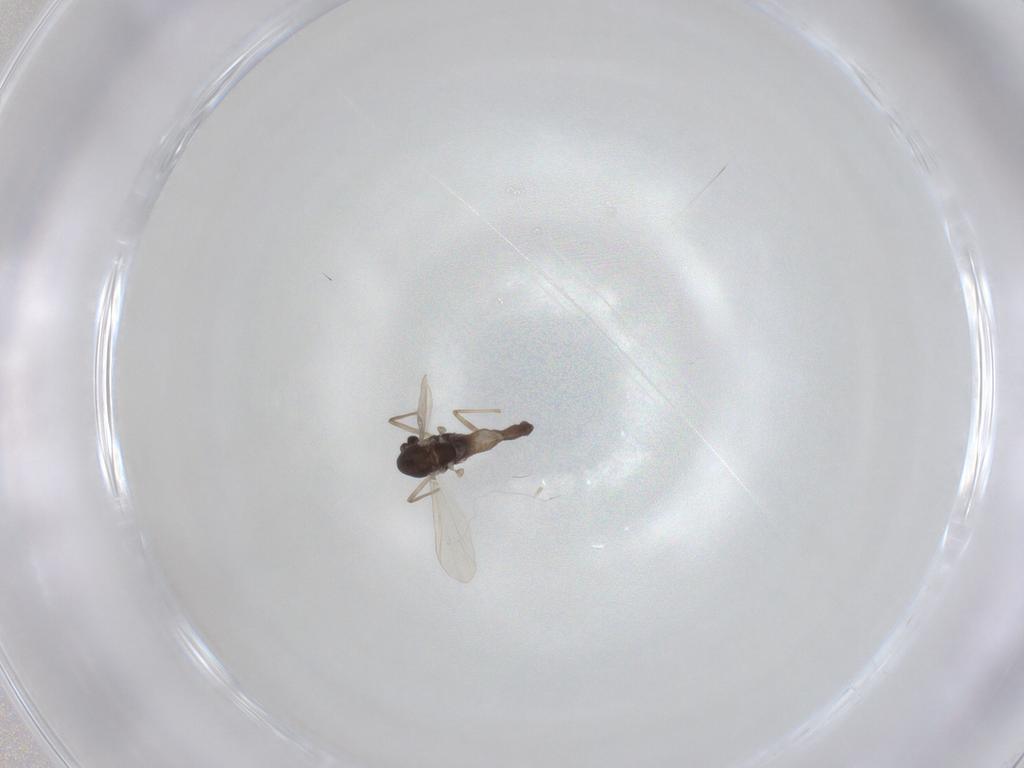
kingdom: Animalia
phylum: Arthropoda
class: Insecta
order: Diptera
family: Chironomidae
